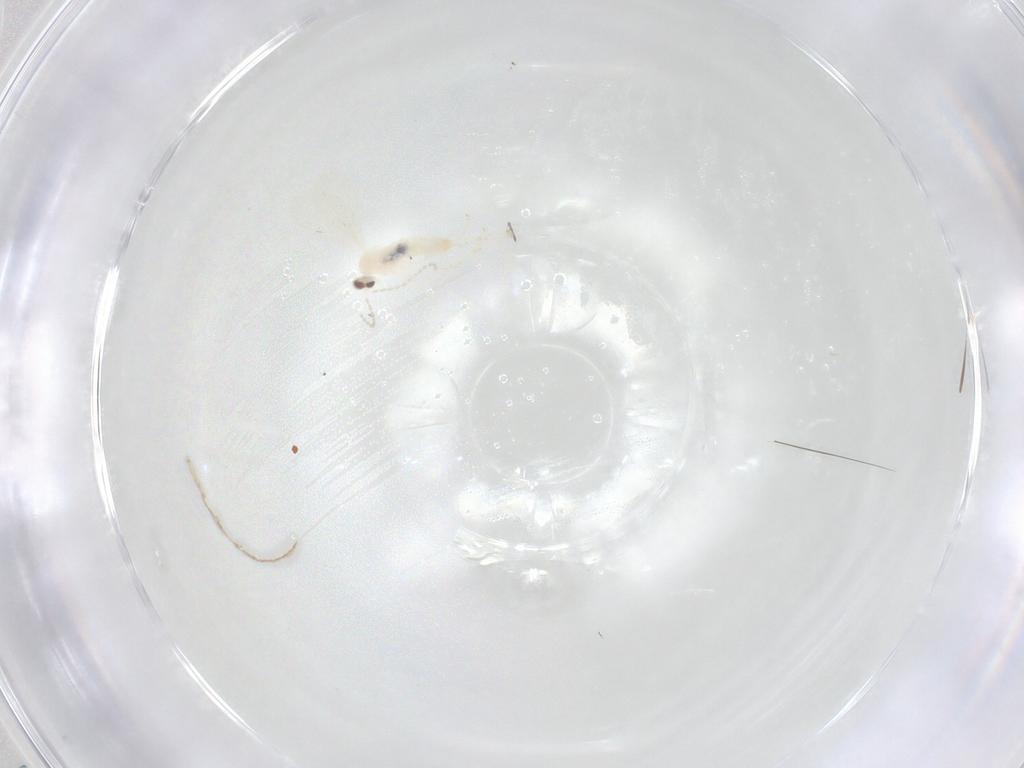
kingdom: Animalia
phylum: Arthropoda
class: Insecta
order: Diptera
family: Cecidomyiidae
